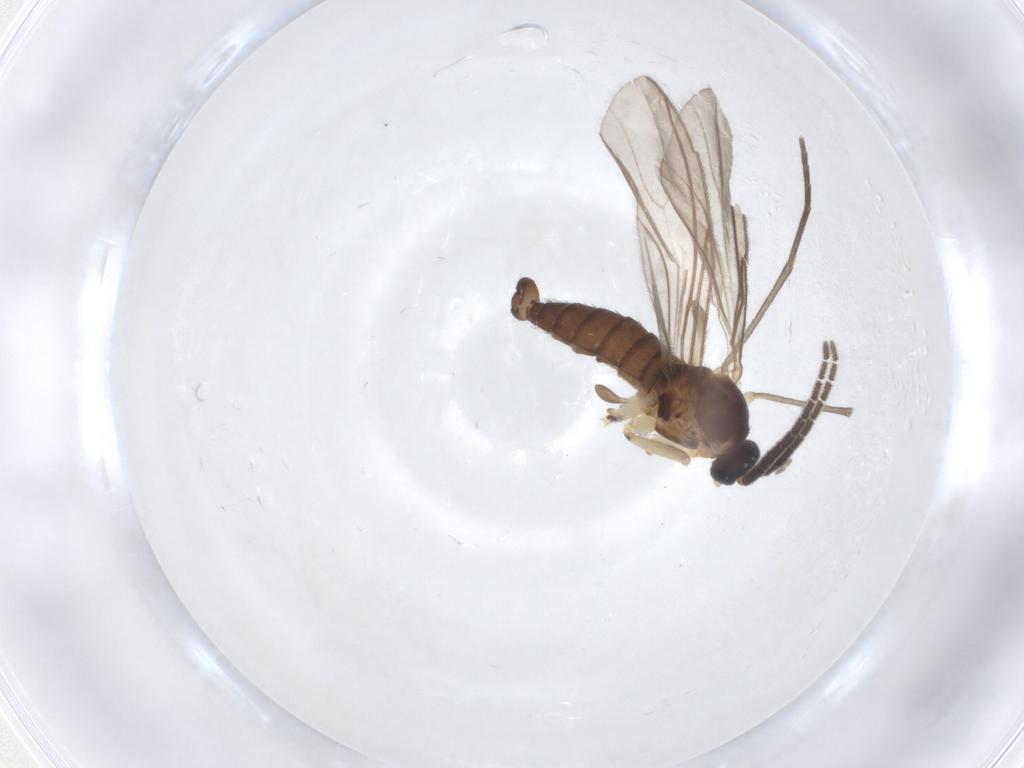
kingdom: Animalia
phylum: Arthropoda
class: Insecta
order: Diptera
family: Sciaridae
